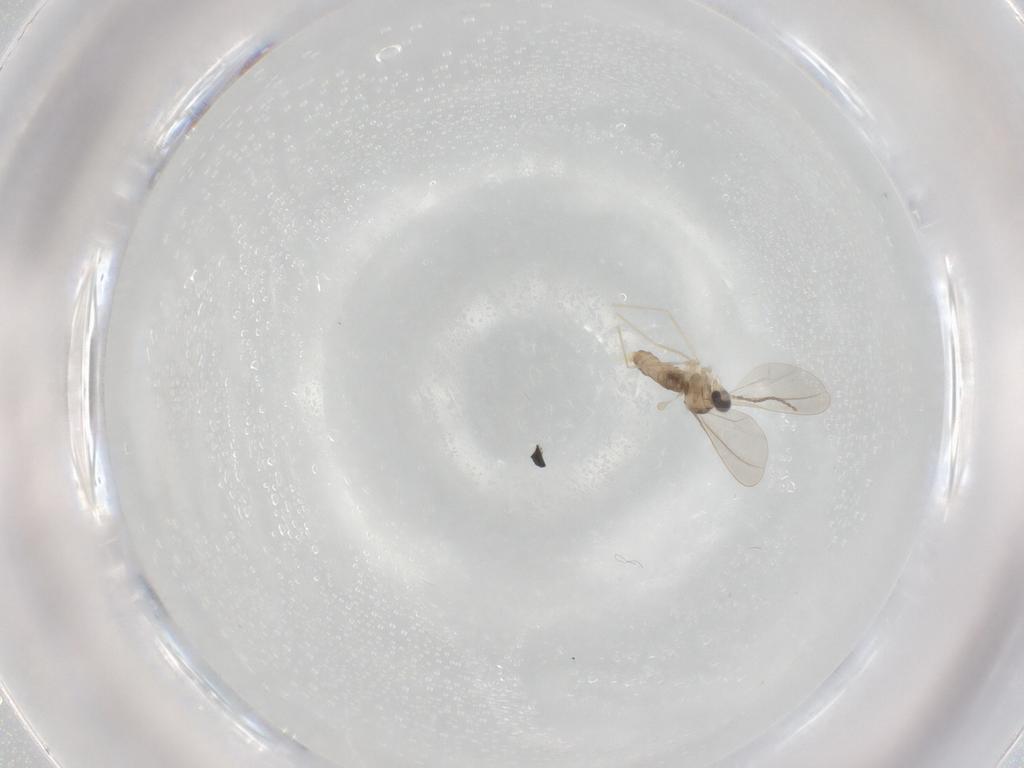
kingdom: Animalia
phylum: Arthropoda
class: Insecta
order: Diptera
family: Cecidomyiidae
